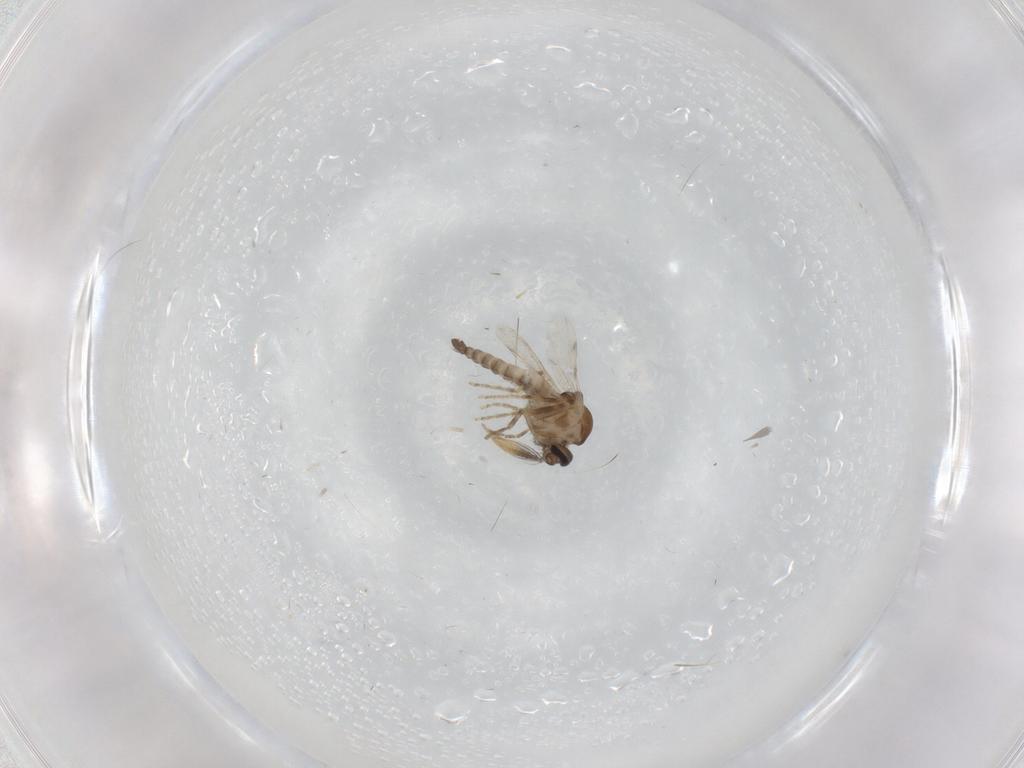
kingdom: Animalia
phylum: Arthropoda
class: Insecta
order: Diptera
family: Ceratopogonidae
